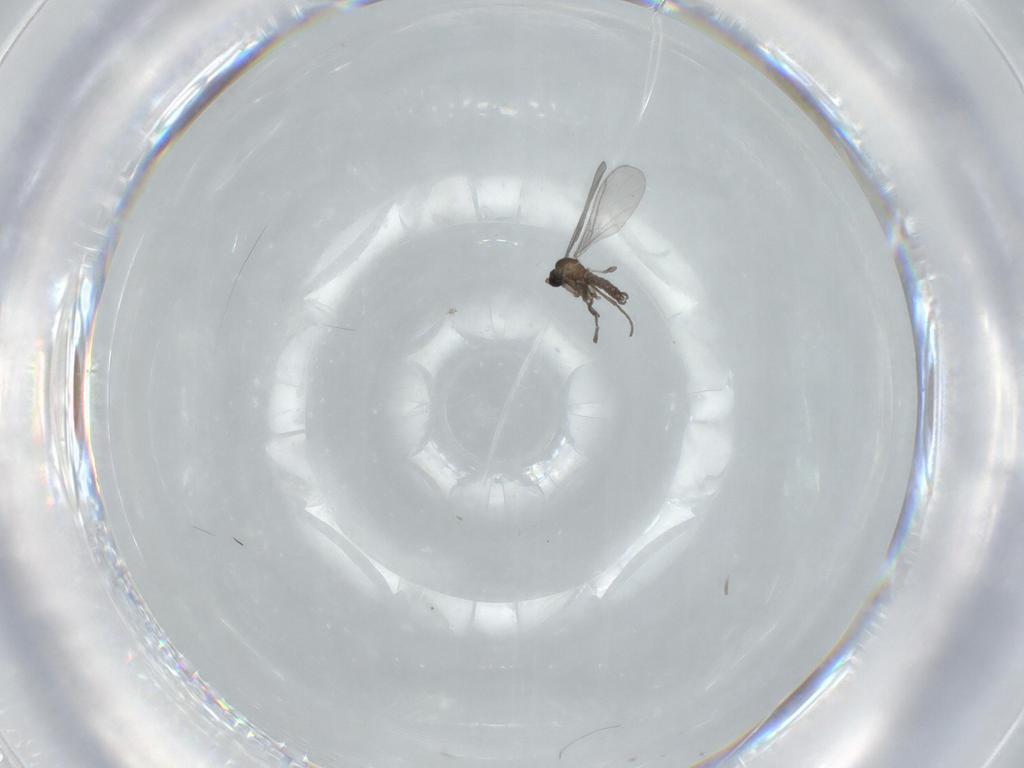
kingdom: Animalia
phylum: Arthropoda
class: Insecta
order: Diptera
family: Sciaridae
